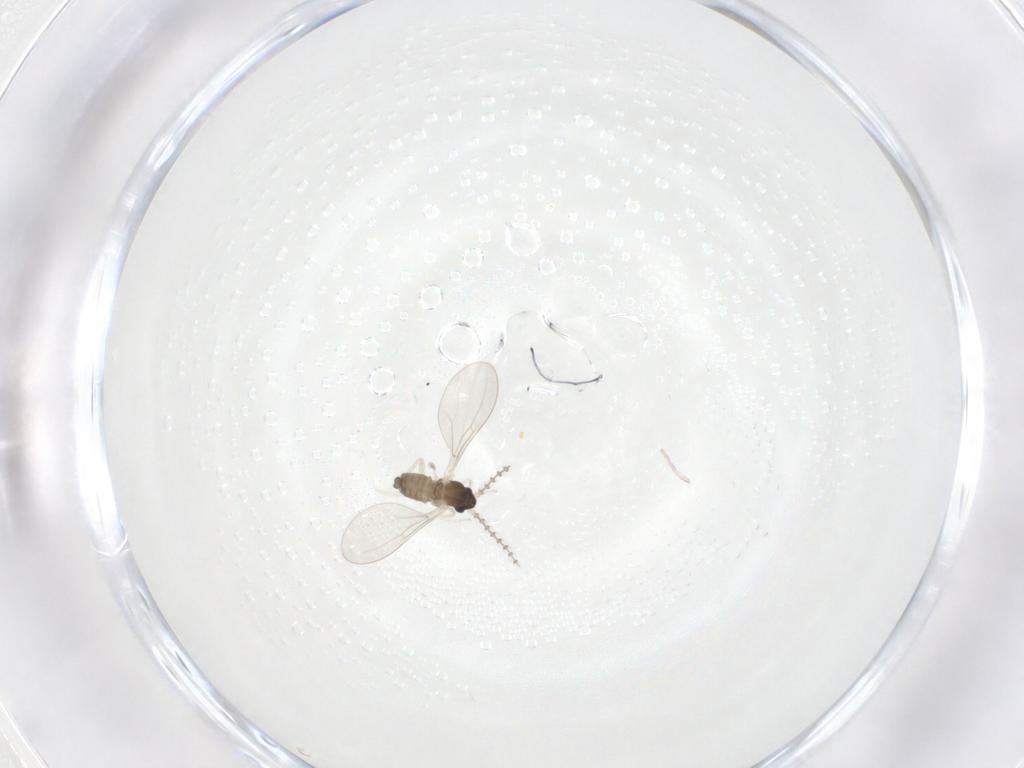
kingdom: Animalia
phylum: Arthropoda
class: Insecta
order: Diptera
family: Cecidomyiidae
